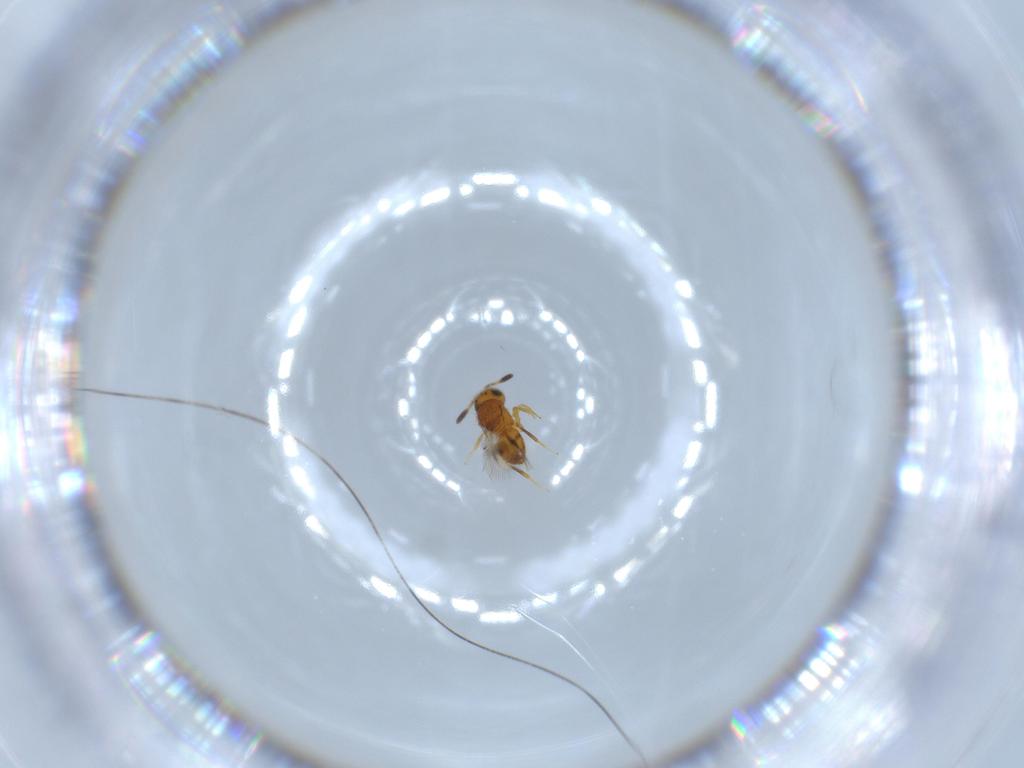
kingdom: Animalia
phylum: Arthropoda
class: Insecta
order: Hymenoptera
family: Scelionidae
